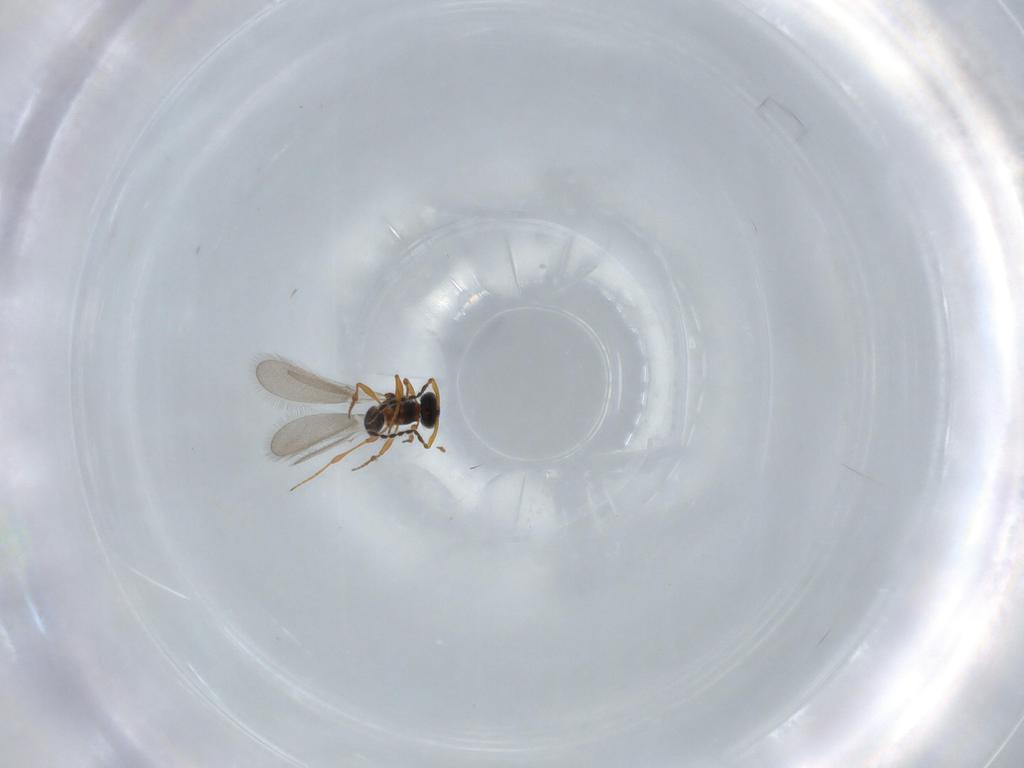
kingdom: Animalia
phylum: Arthropoda
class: Insecta
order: Hymenoptera
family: Platygastridae
